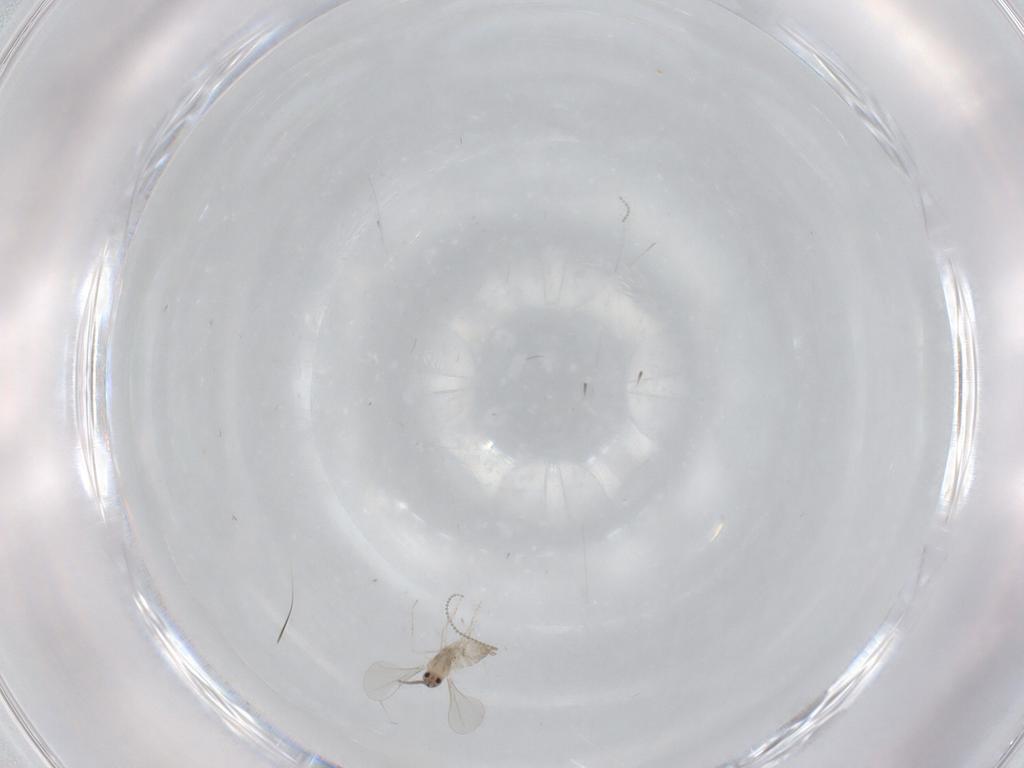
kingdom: Animalia
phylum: Arthropoda
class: Insecta
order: Diptera
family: Cecidomyiidae
